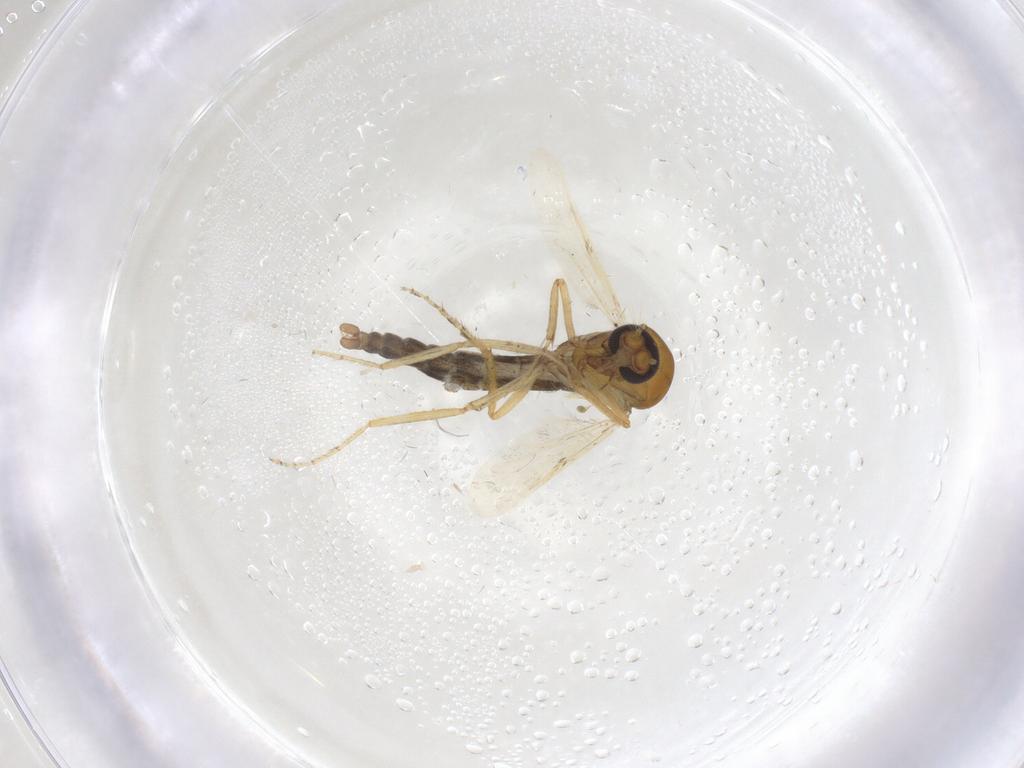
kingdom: Animalia
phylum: Arthropoda
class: Insecta
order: Diptera
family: Ceratopogonidae
